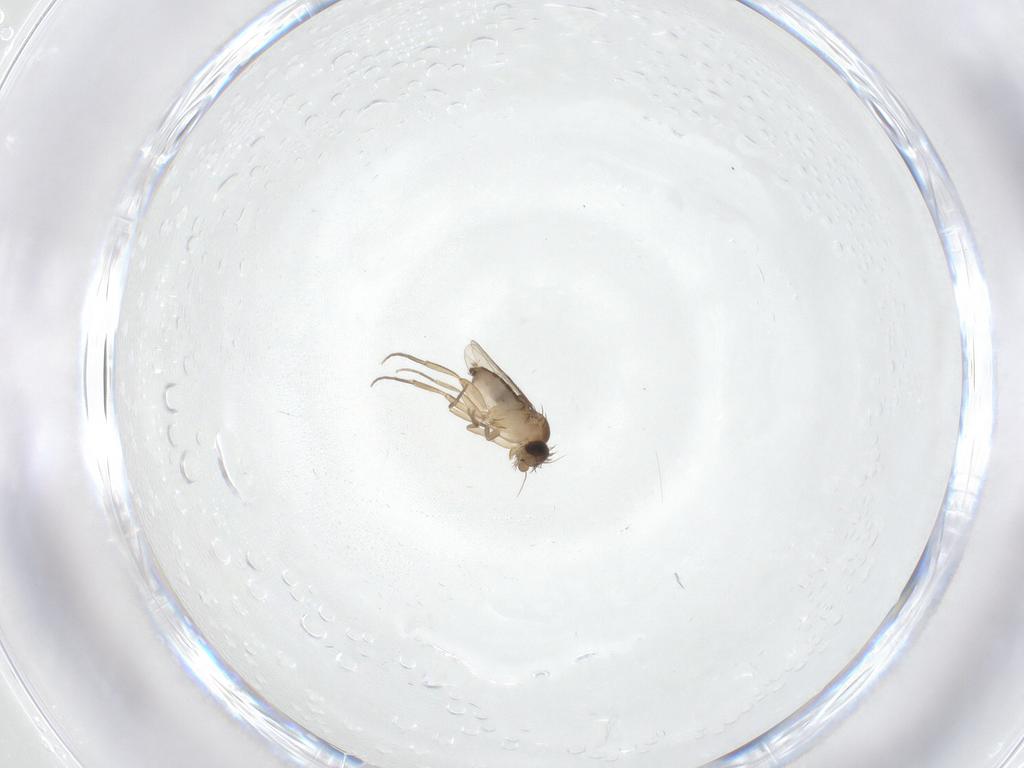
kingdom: Animalia
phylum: Arthropoda
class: Insecta
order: Diptera
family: Phoridae
